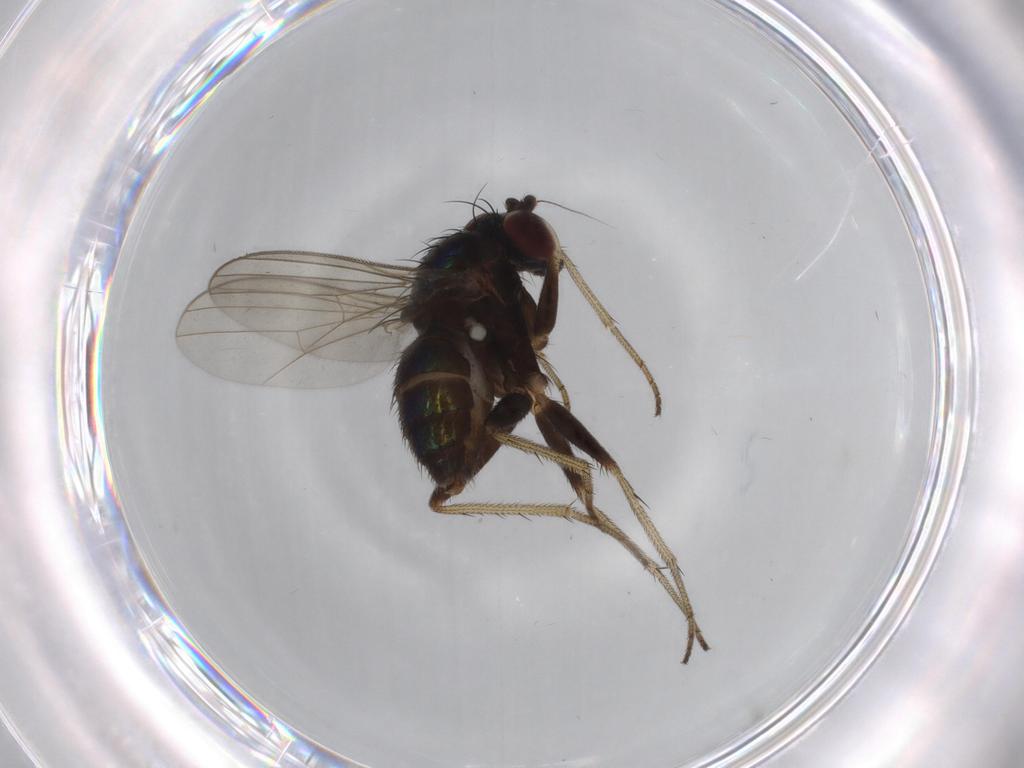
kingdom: Animalia
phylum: Arthropoda
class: Insecta
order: Diptera
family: Dolichopodidae
